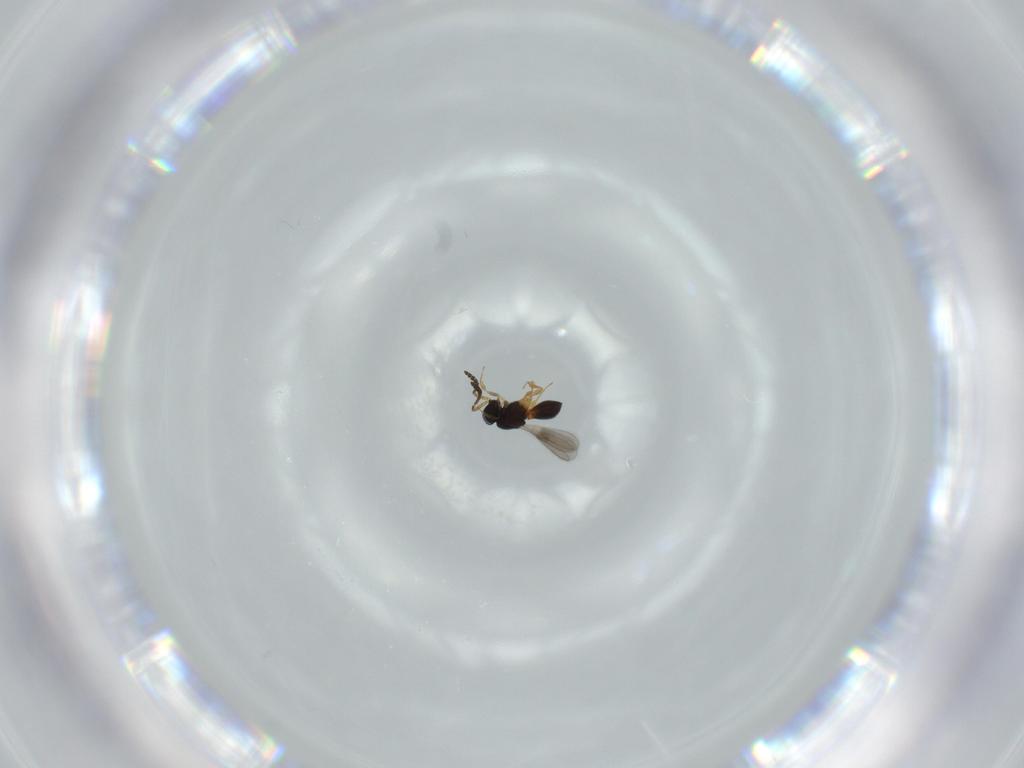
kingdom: Animalia
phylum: Arthropoda
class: Insecta
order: Hymenoptera
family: Scelionidae
